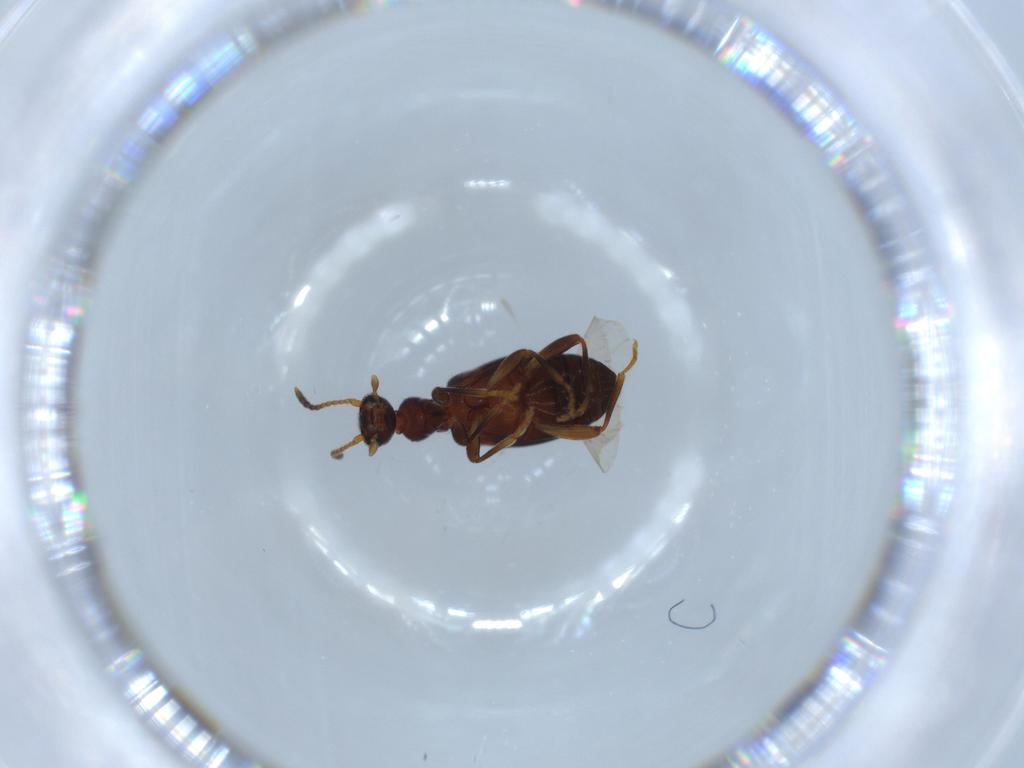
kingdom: Animalia
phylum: Arthropoda
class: Insecta
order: Coleoptera
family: Anthicidae
